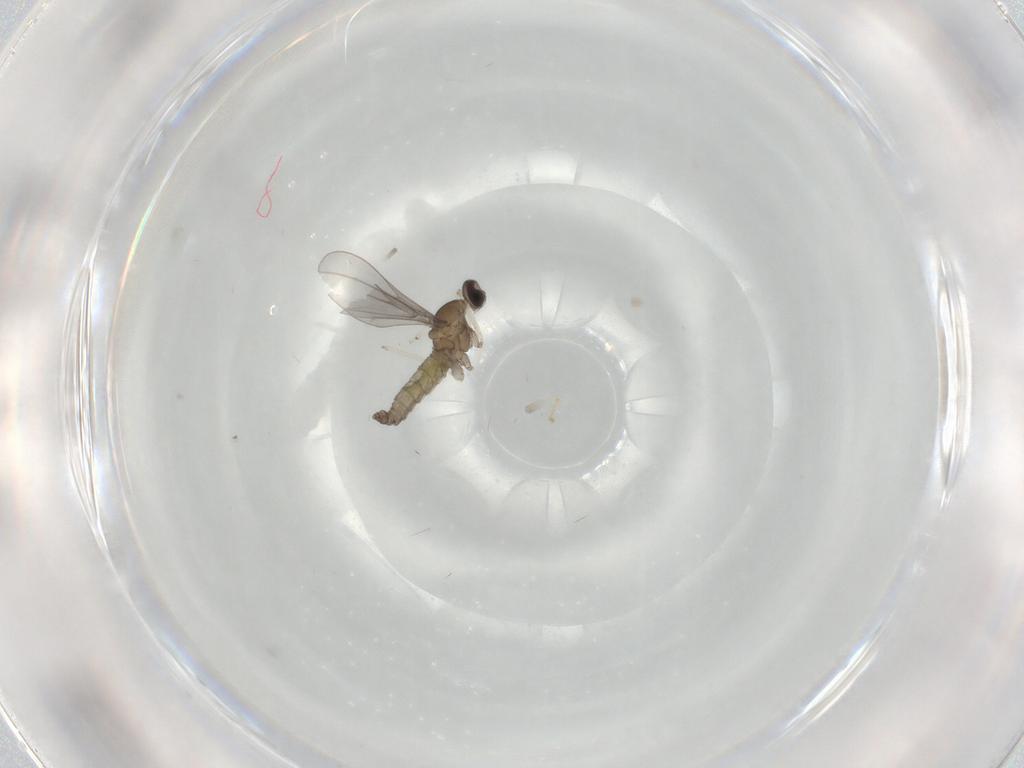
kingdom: Animalia
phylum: Arthropoda
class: Insecta
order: Diptera
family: Cecidomyiidae
